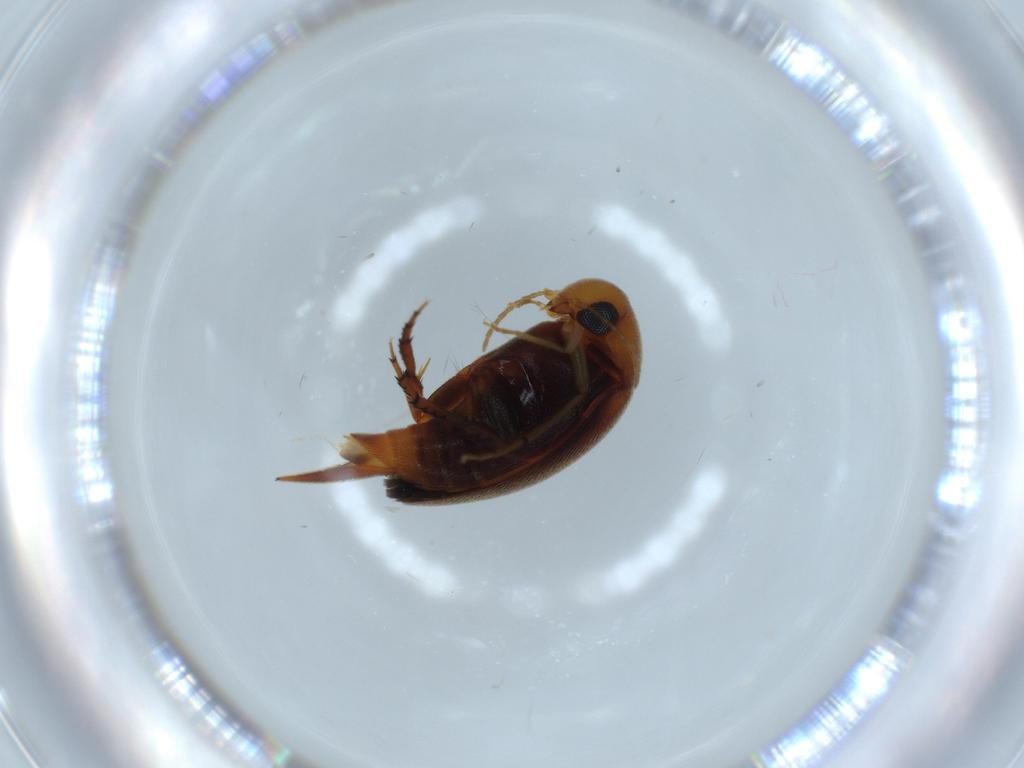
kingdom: Animalia
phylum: Arthropoda
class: Insecta
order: Coleoptera
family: Mordellidae
